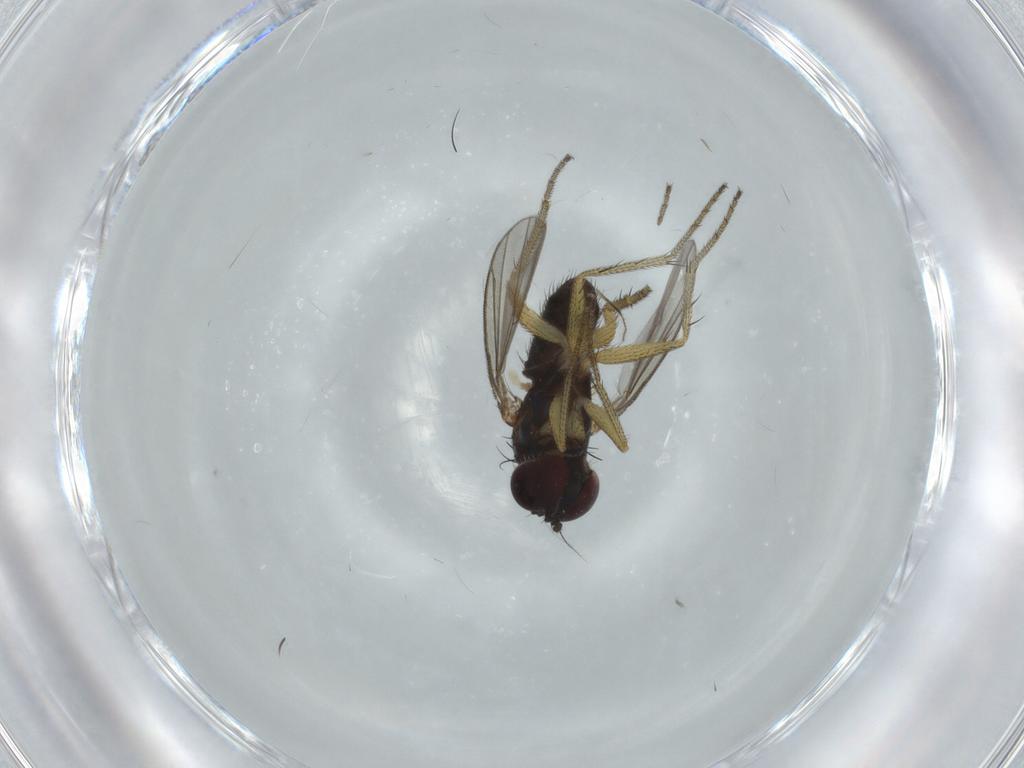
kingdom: Animalia
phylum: Arthropoda
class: Insecta
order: Diptera
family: Dolichopodidae
